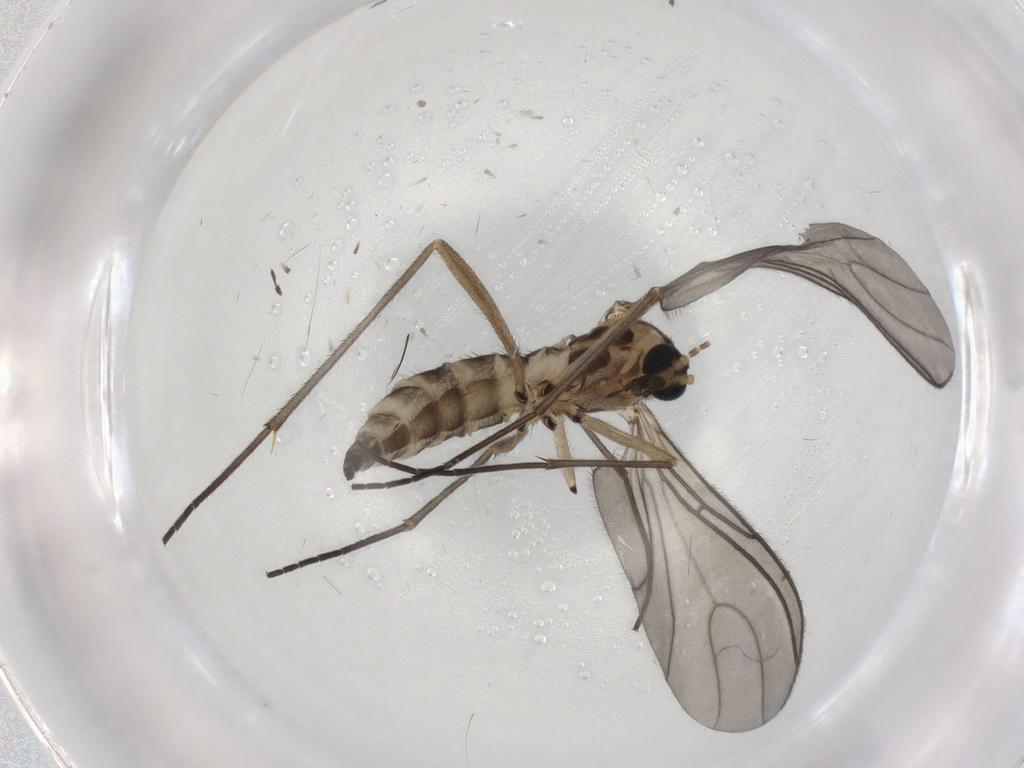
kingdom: Animalia
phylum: Arthropoda
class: Insecta
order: Diptera
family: Sciaridae
